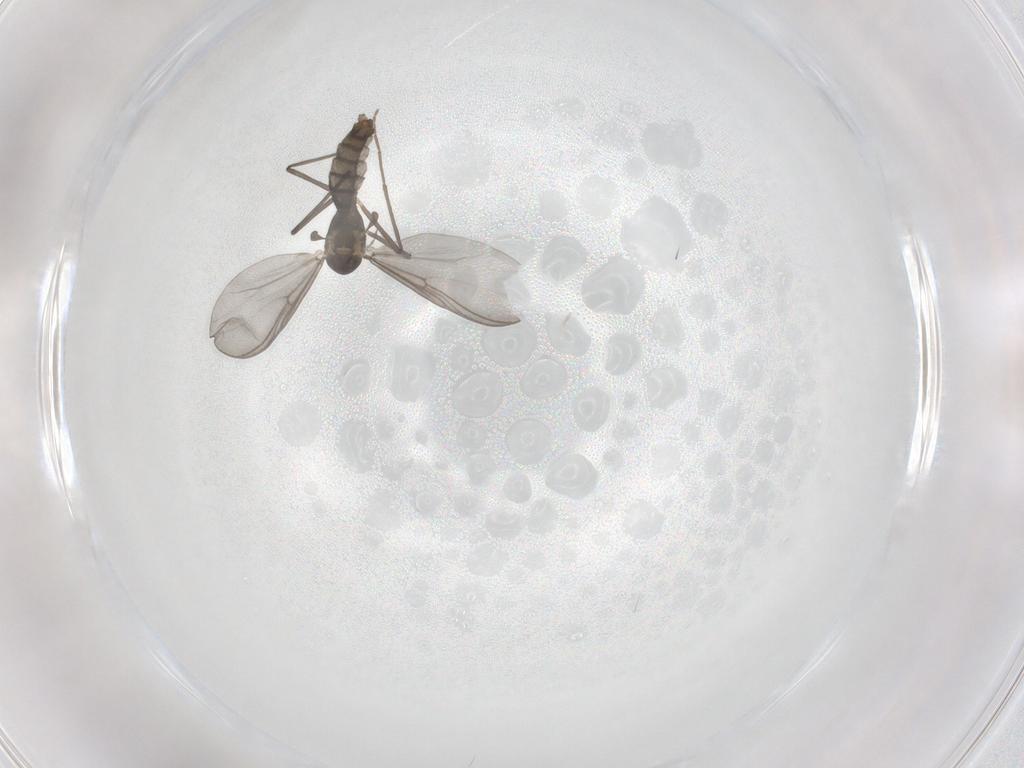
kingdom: Animalia
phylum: Arthropoda
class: Insecta
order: Diptera
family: Chironomidae
